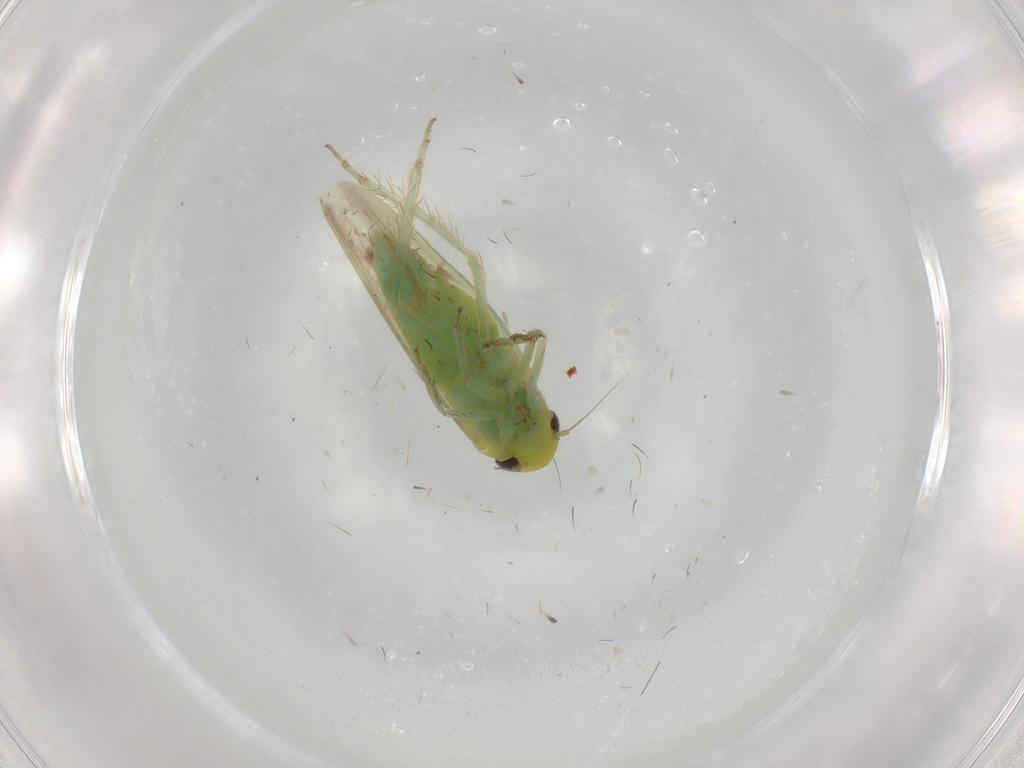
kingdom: Animalia
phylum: Arthropoda
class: Insecta
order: Hemiptera
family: Cicadellidae
